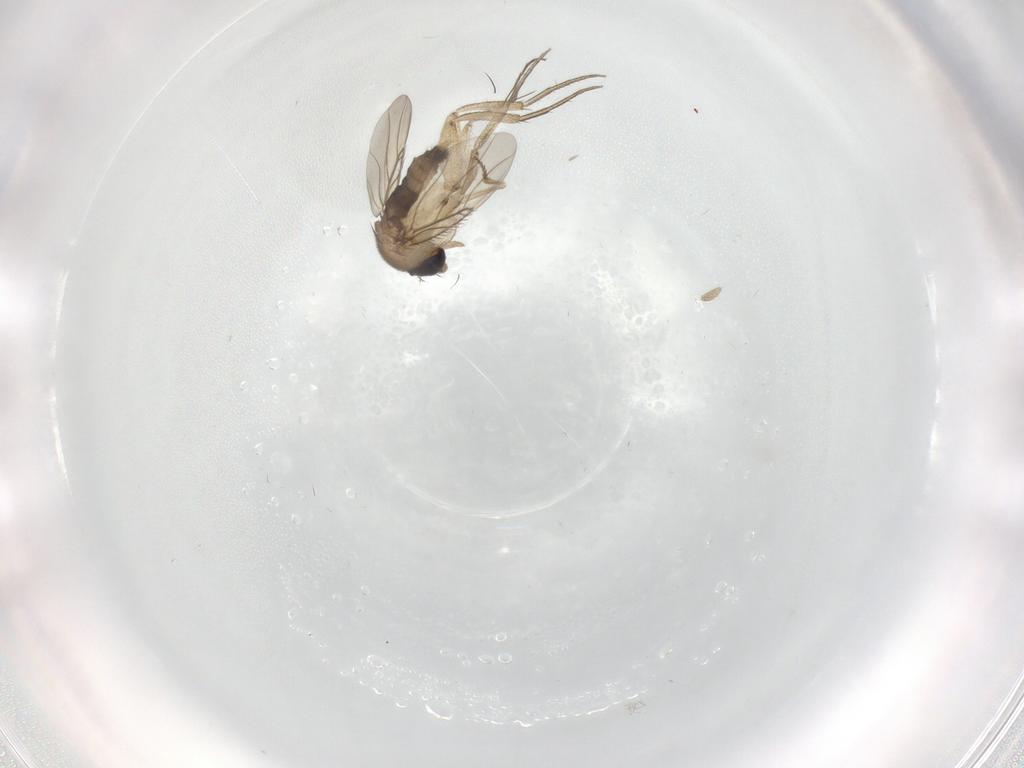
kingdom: Animalia
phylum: Arthropoda
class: Insecta
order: Diptera
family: Phoridae
